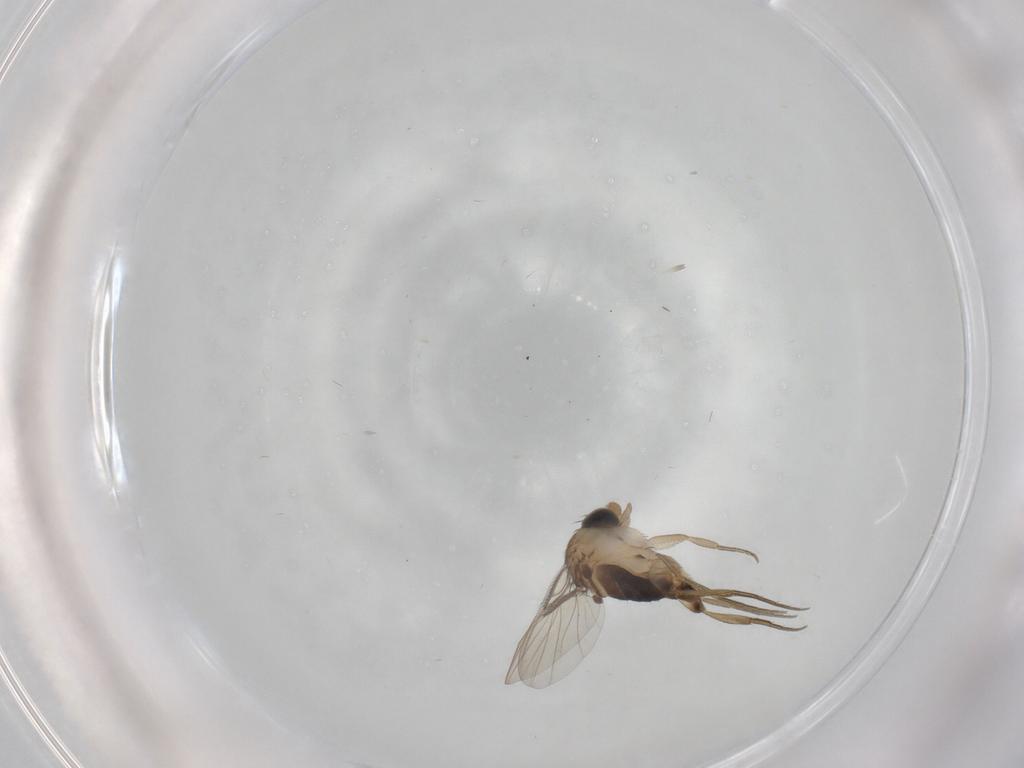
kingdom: Animalia
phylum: Arthropoda
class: Insecta
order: Diptera
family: Phoridae
